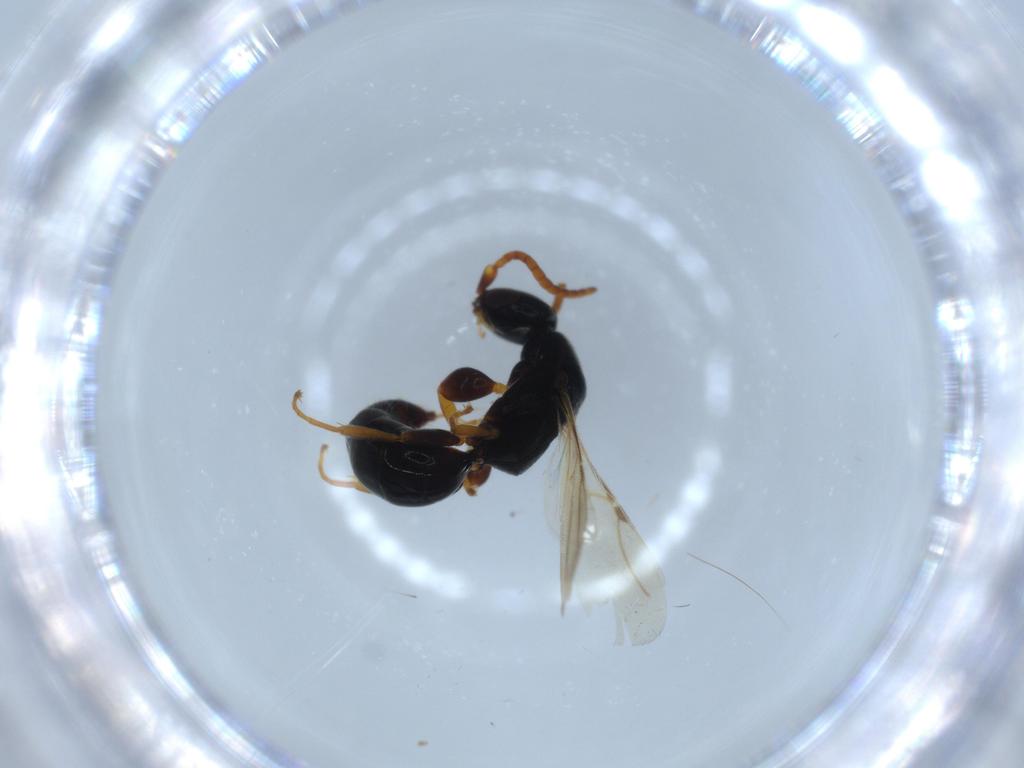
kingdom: Animalia
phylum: Arthropoda
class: Insecta
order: Hymenoptera
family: Bethylidae
